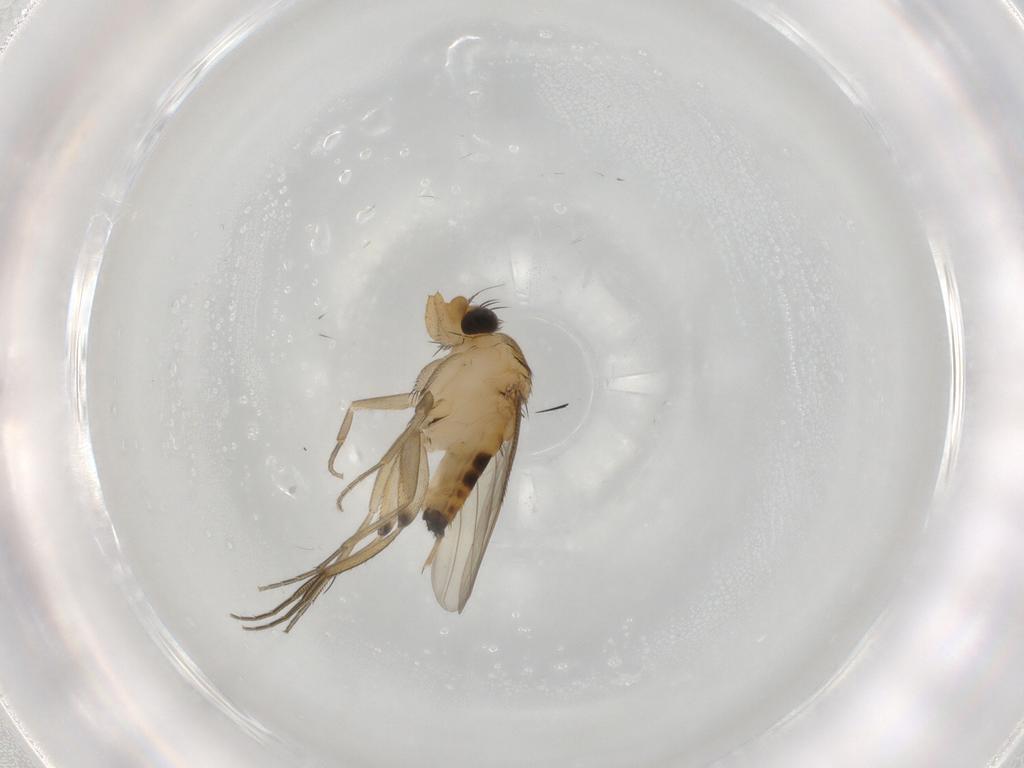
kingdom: Animalia
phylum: Arthropoda
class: Insecta
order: Diptera
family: Phoridae
